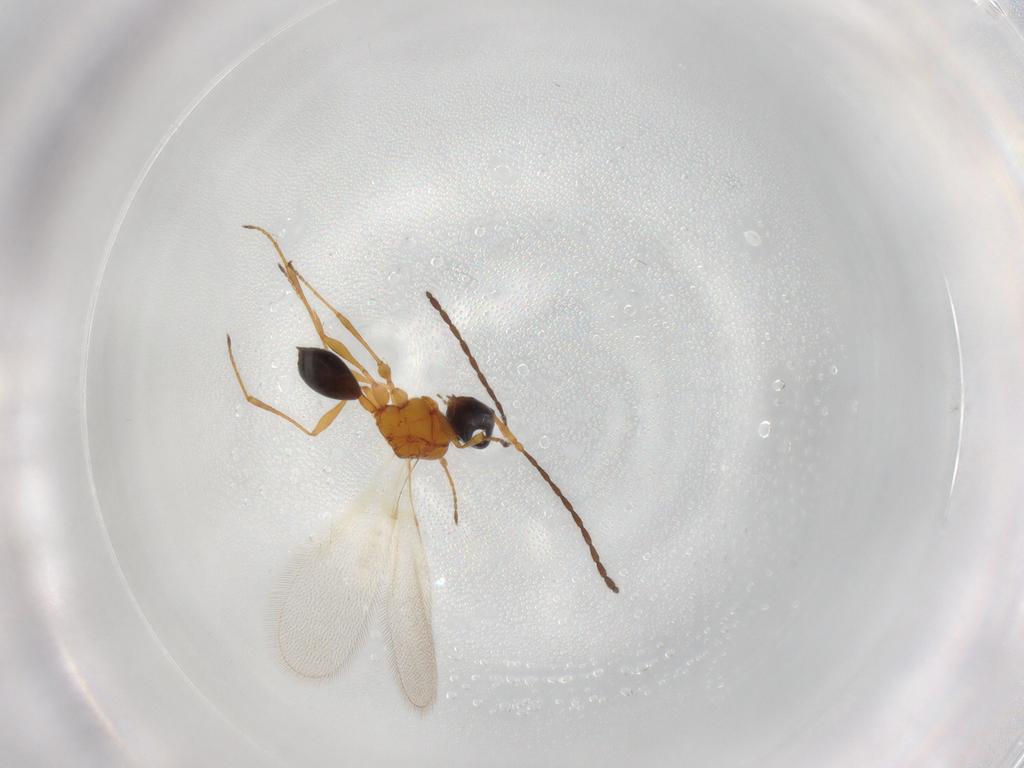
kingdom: Animalia
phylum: Arthropoda
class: Insecta
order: Hymenoptera
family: Diapriidae
